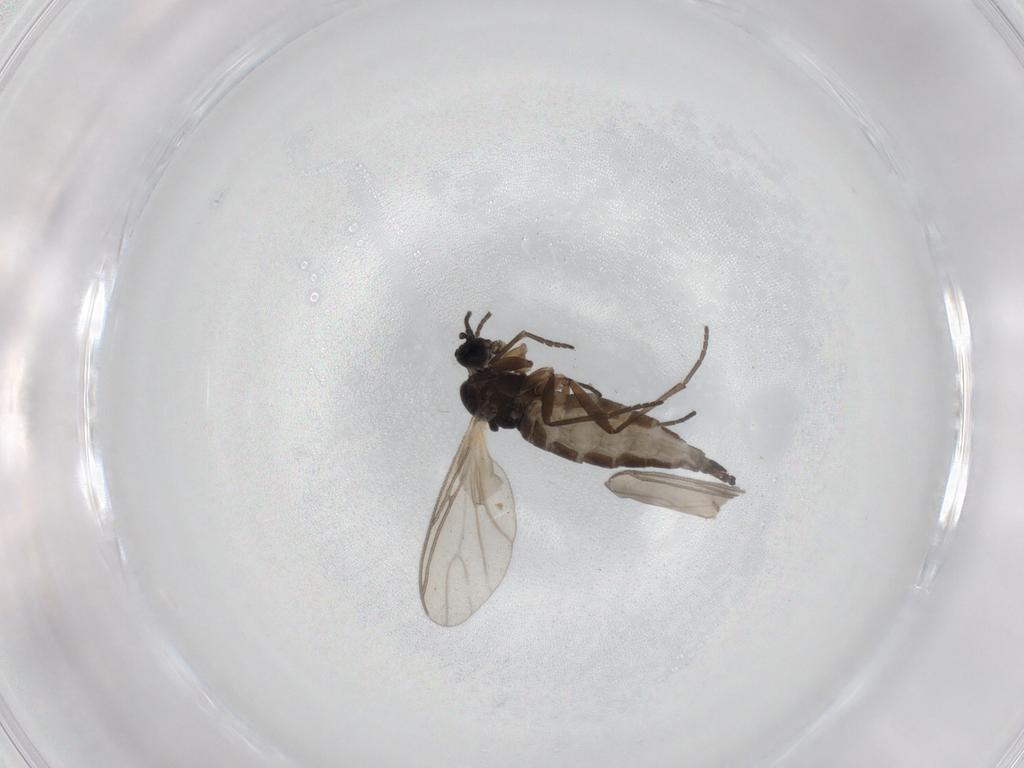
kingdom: Animalia
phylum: Arthropoda
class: Insecta
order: Diptera
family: Sciaridae
